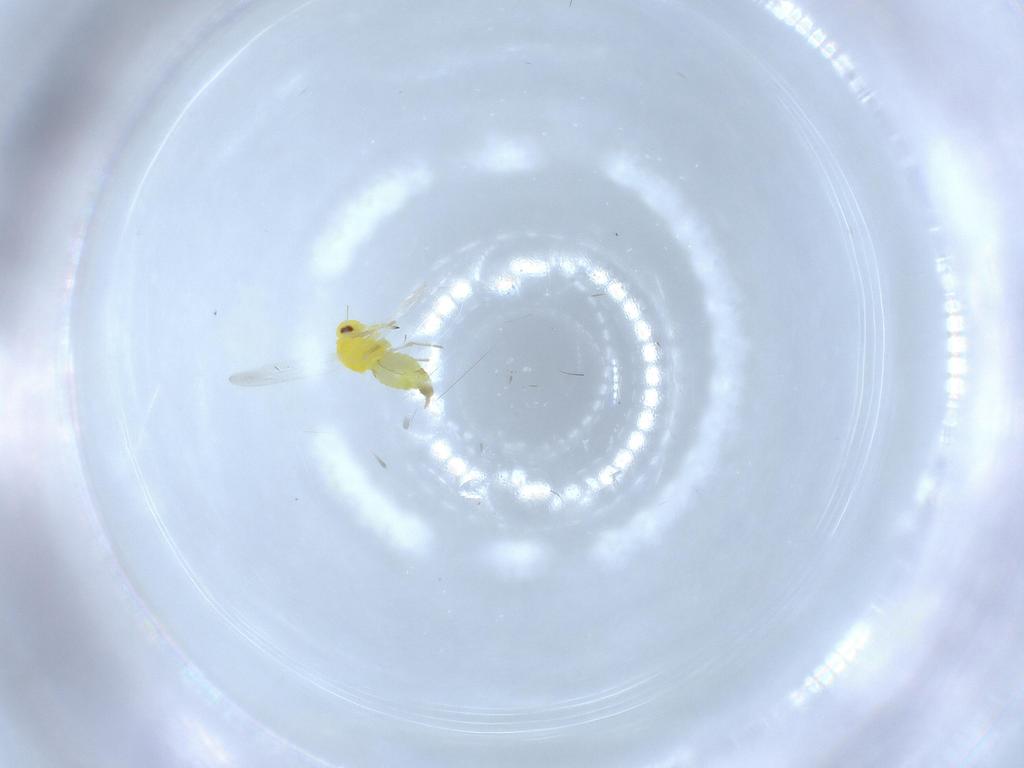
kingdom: Animalia
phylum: Arthropoda
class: Insecta
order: Hemiptera
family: Aleyrodidae
